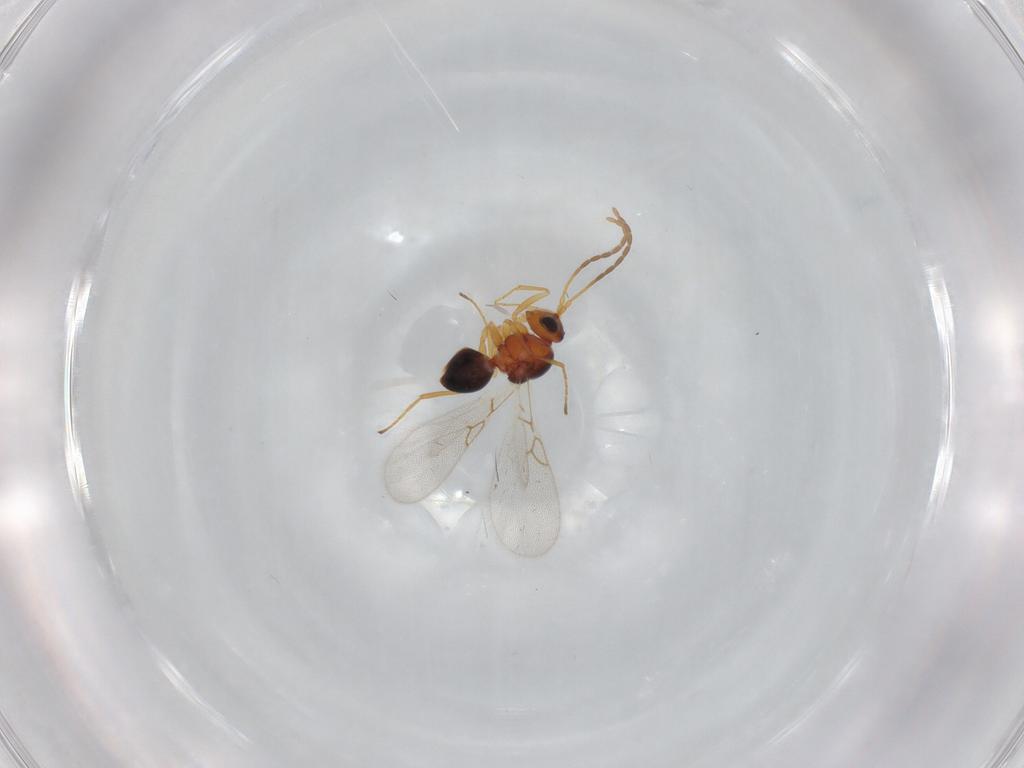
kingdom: Animalia
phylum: Arthropoda
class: Insecta
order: Hymenoptera
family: Figitidae
